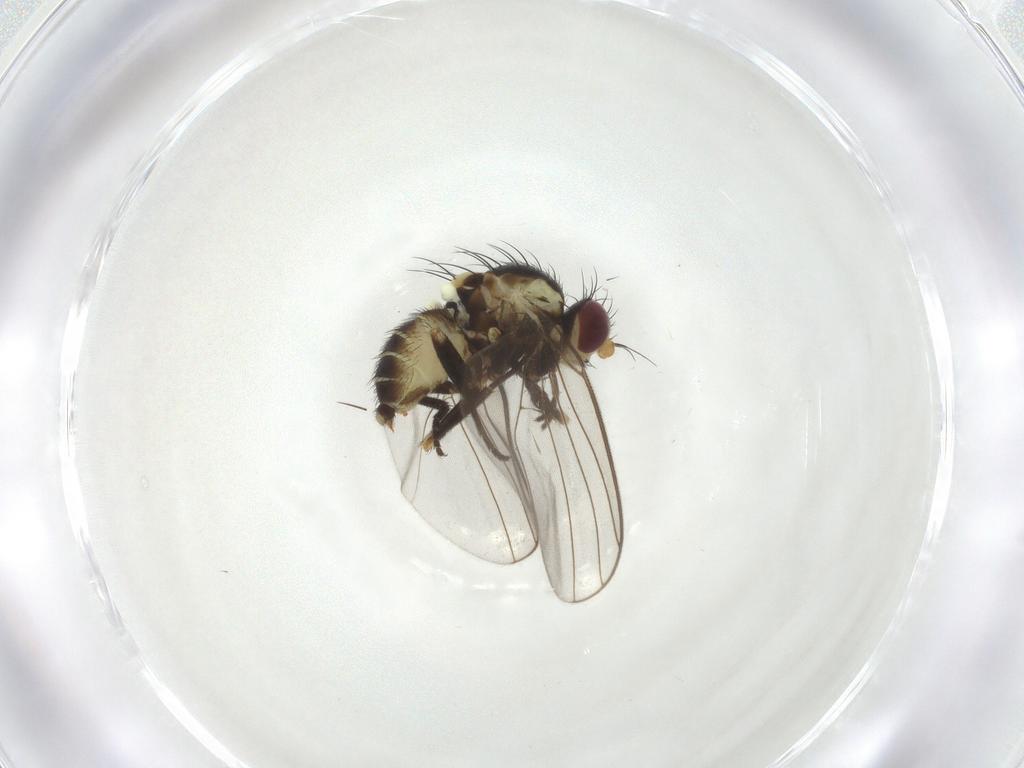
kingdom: Animalia
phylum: Arthropoda
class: Insecta
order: Diptera
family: Agromyzidae
